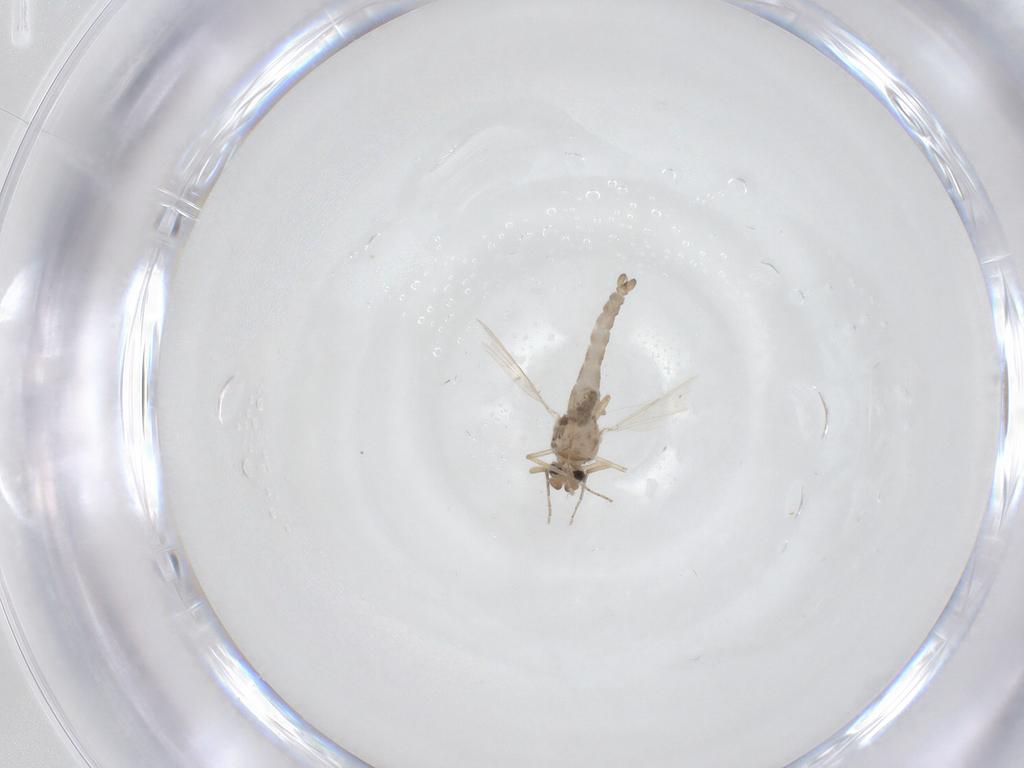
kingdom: Animalia
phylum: Arthropoda
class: Insecta
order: Diptera
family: Ceratopogonidae
